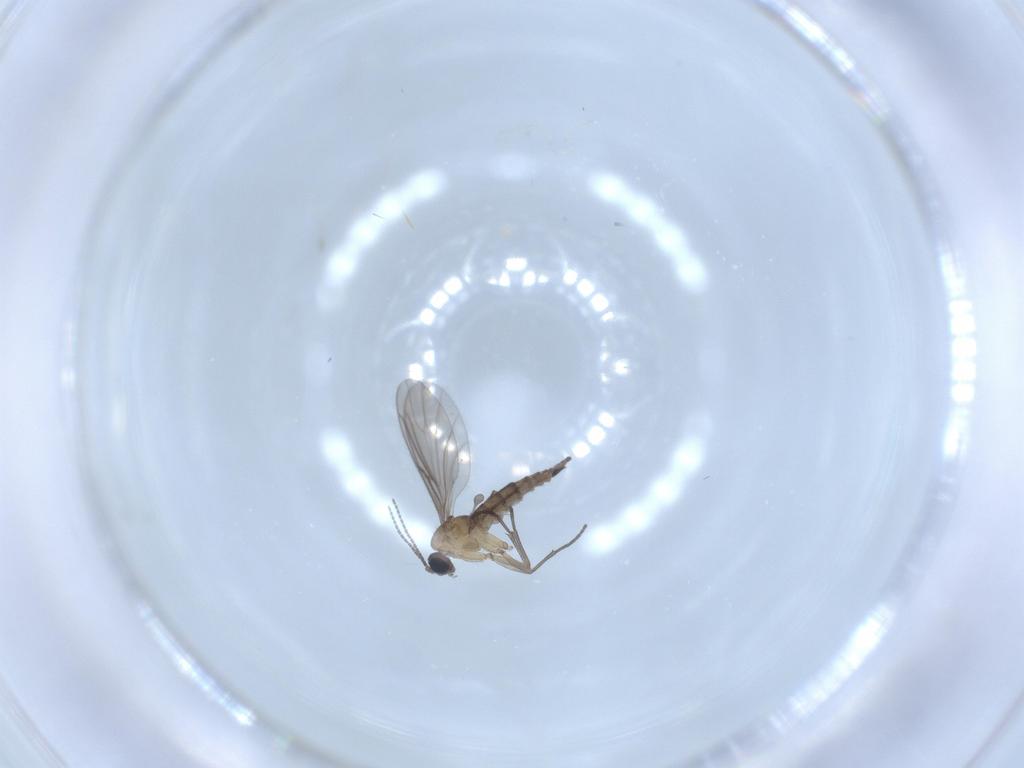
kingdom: Animalia
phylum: Arthropoda
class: Insecta
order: Diptera
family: Sciaridae
